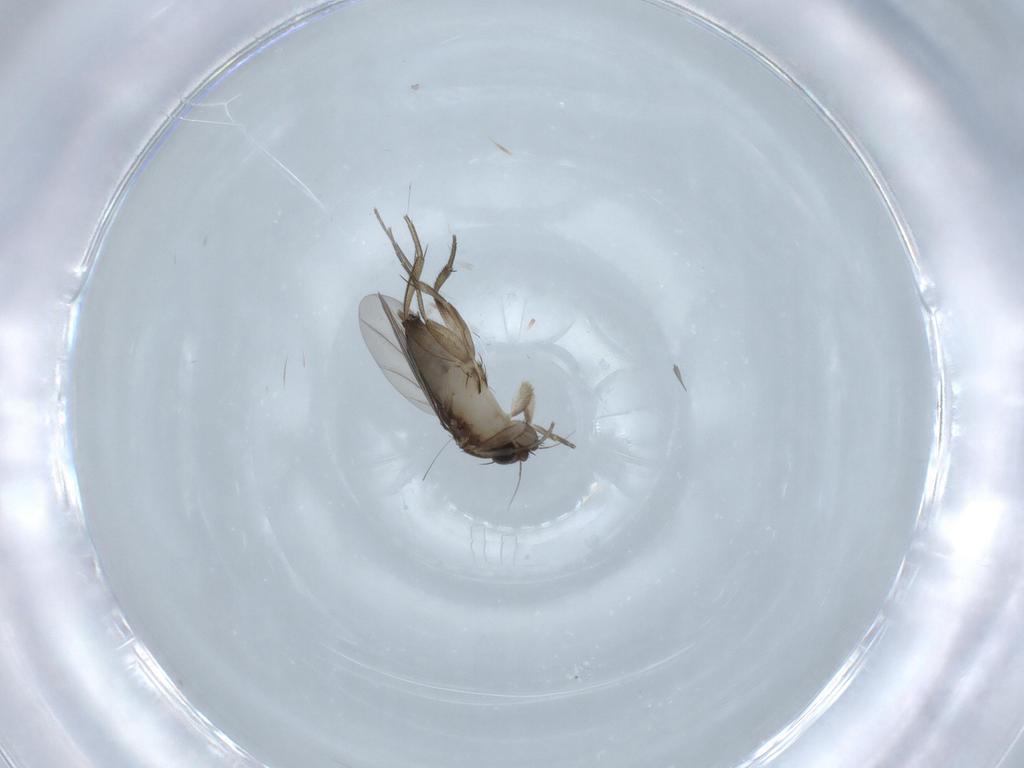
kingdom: Animalia
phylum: Arthropoda
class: Insecta
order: Diptera
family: Phoridae
